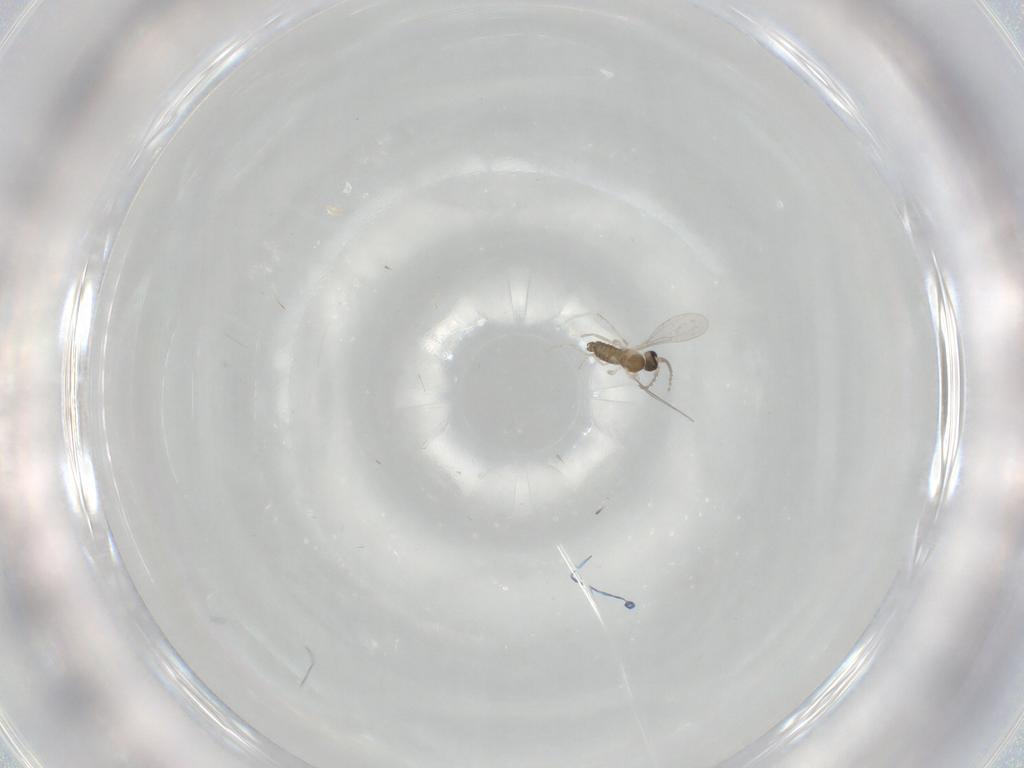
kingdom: Animalia
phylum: Arthropoda
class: Insecta
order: Diptera
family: Cecidomyiidae
